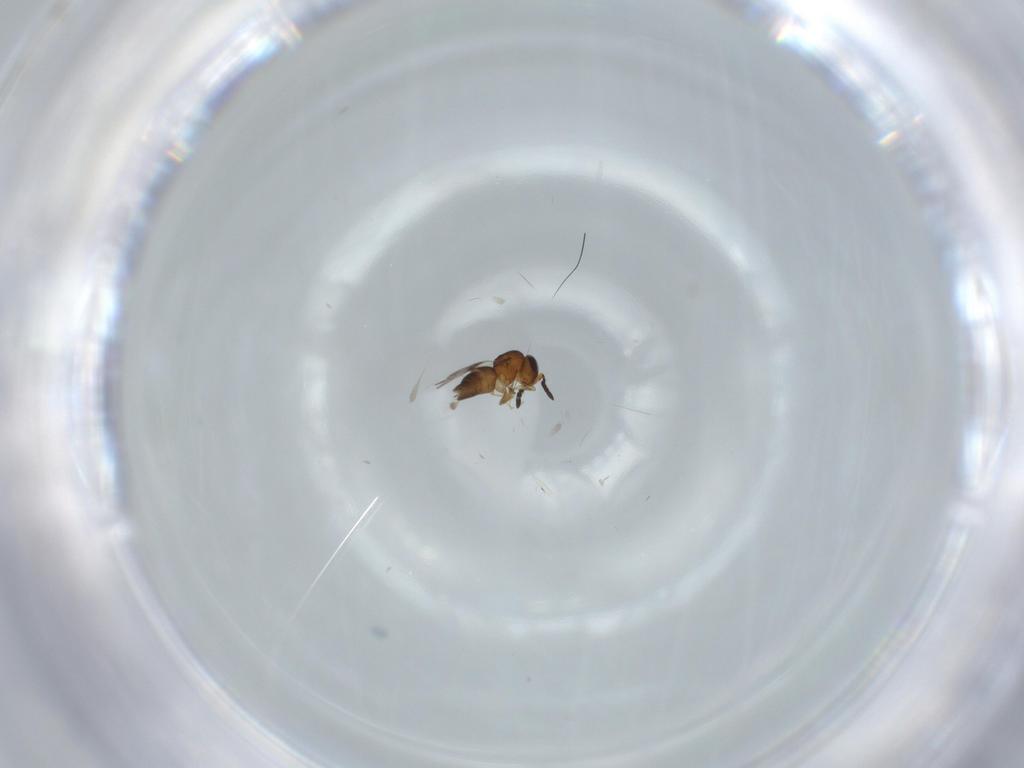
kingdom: Animalia
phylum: Arthropoda
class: Insecta
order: Hymenoptera
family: Ceraphronidae
